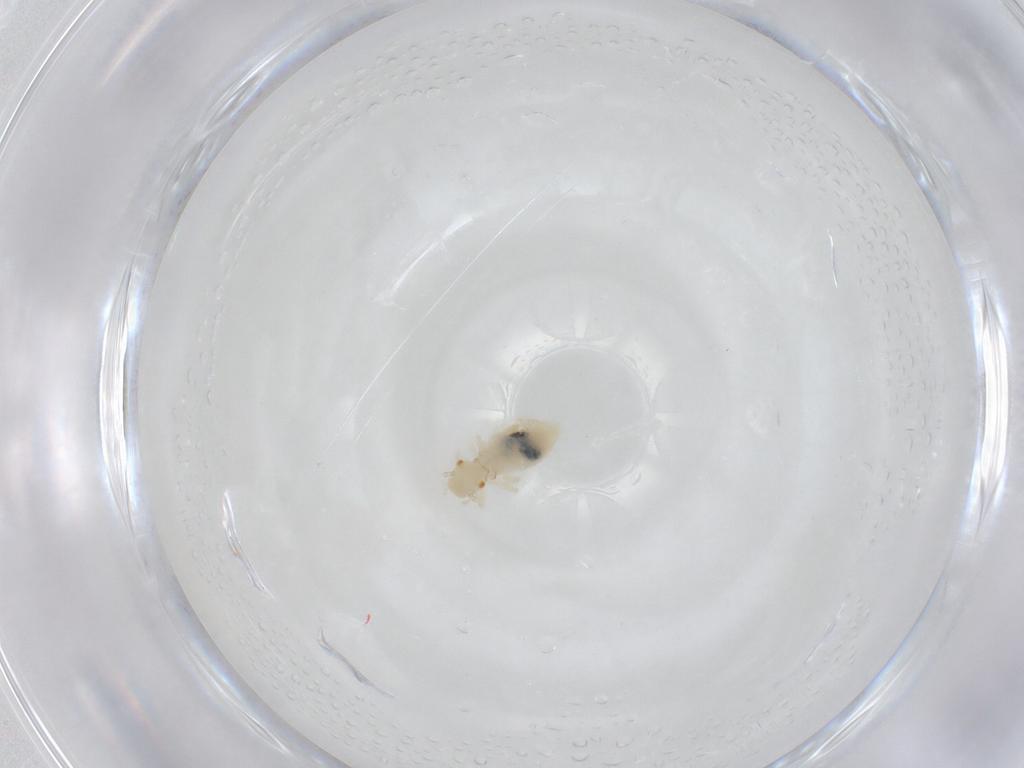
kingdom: Animalia
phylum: Arthropoda
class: Insecta
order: Psocodea
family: Caeciliusidae
